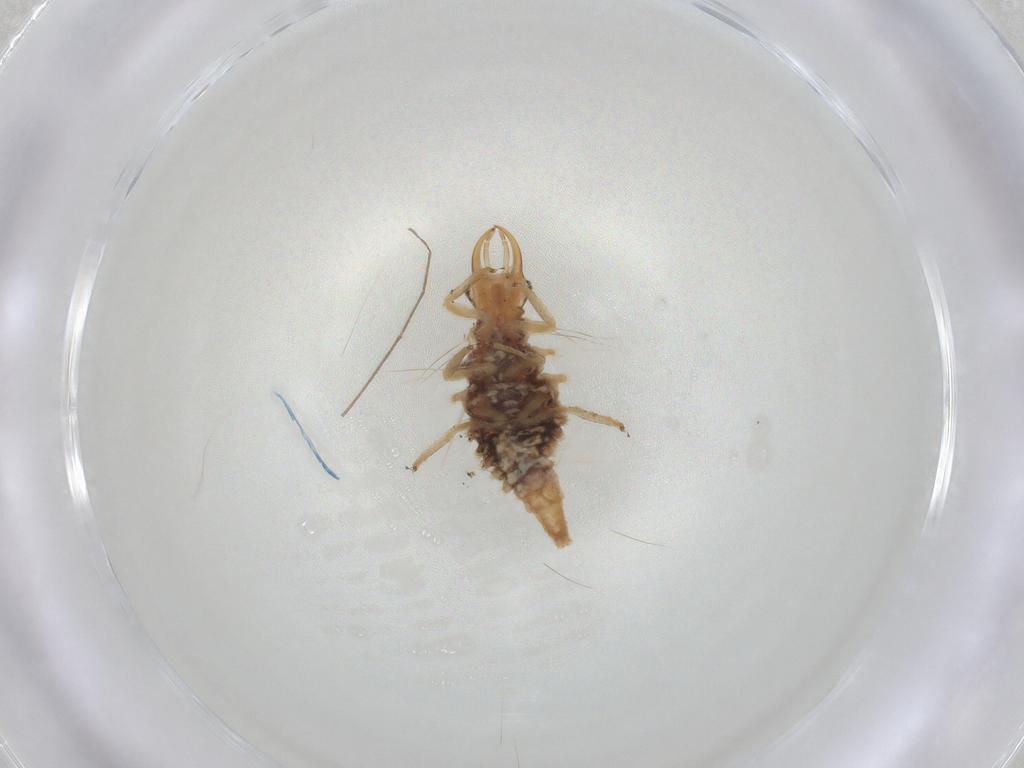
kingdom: Animalia
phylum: Arthropoda
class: Insecta
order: Neuroptera
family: Chrysopidae
